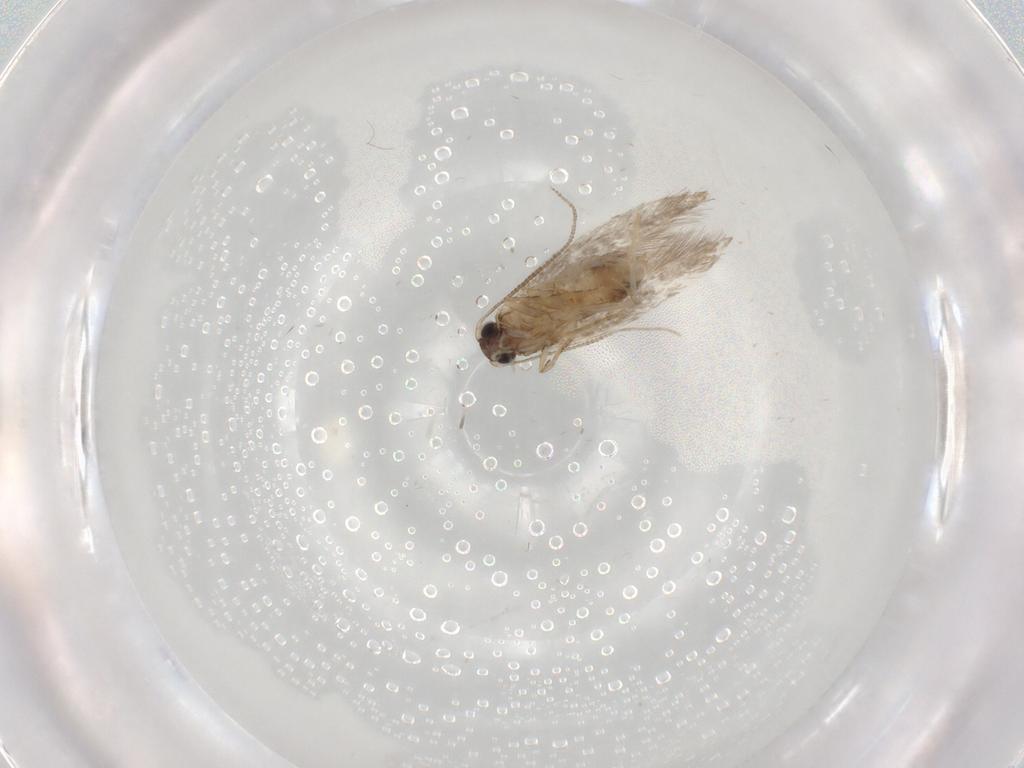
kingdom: Animalia
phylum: Arthropoda
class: Insecta
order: Lepidoptera
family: Tineidae
